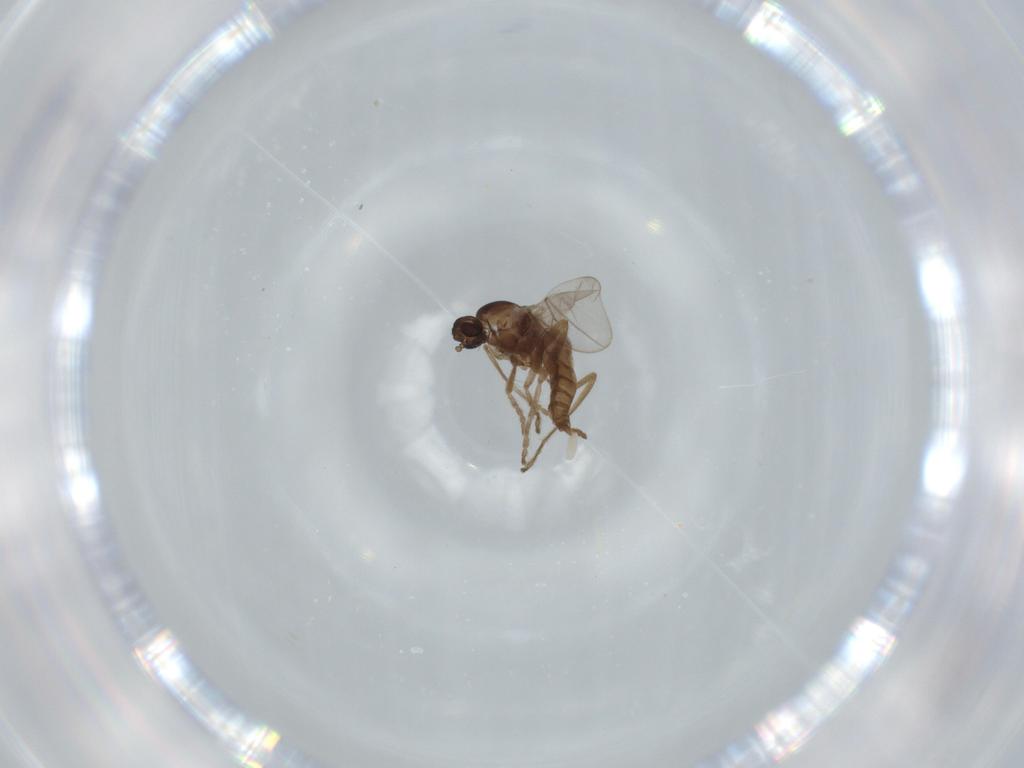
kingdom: Animalia
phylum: Arthropoda
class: Insecta
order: Diptera
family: Cecidomyiidae
